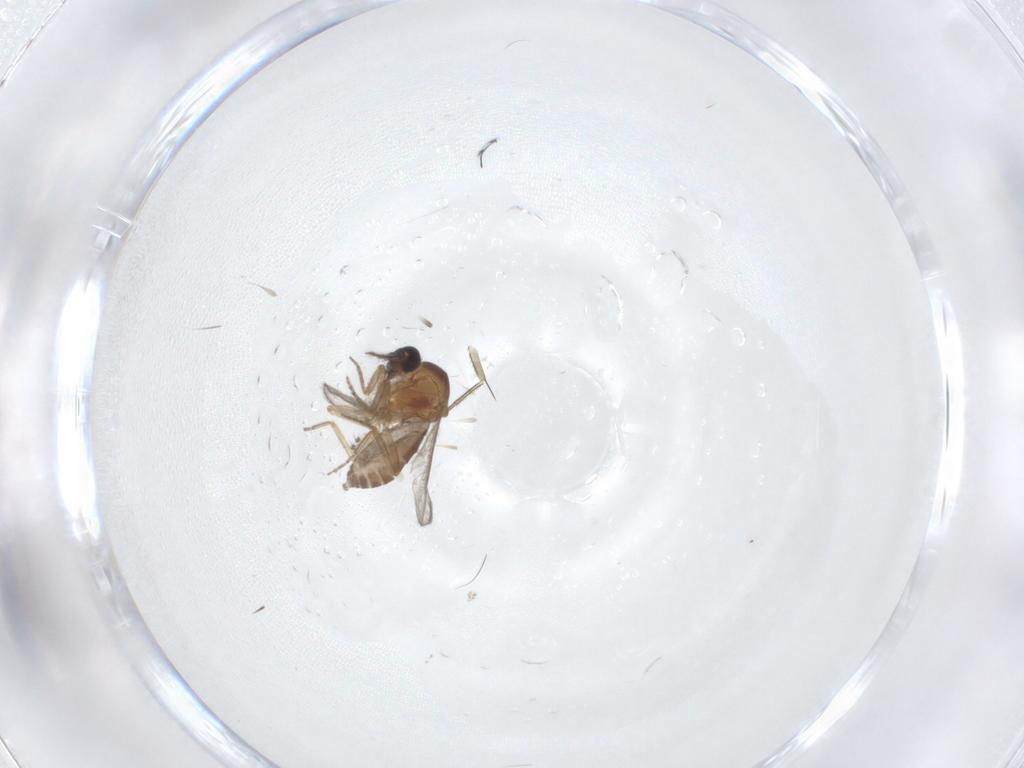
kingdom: Animalia
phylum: Arthropoda
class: Insecta
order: Diptera
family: Ceratopogonidae
